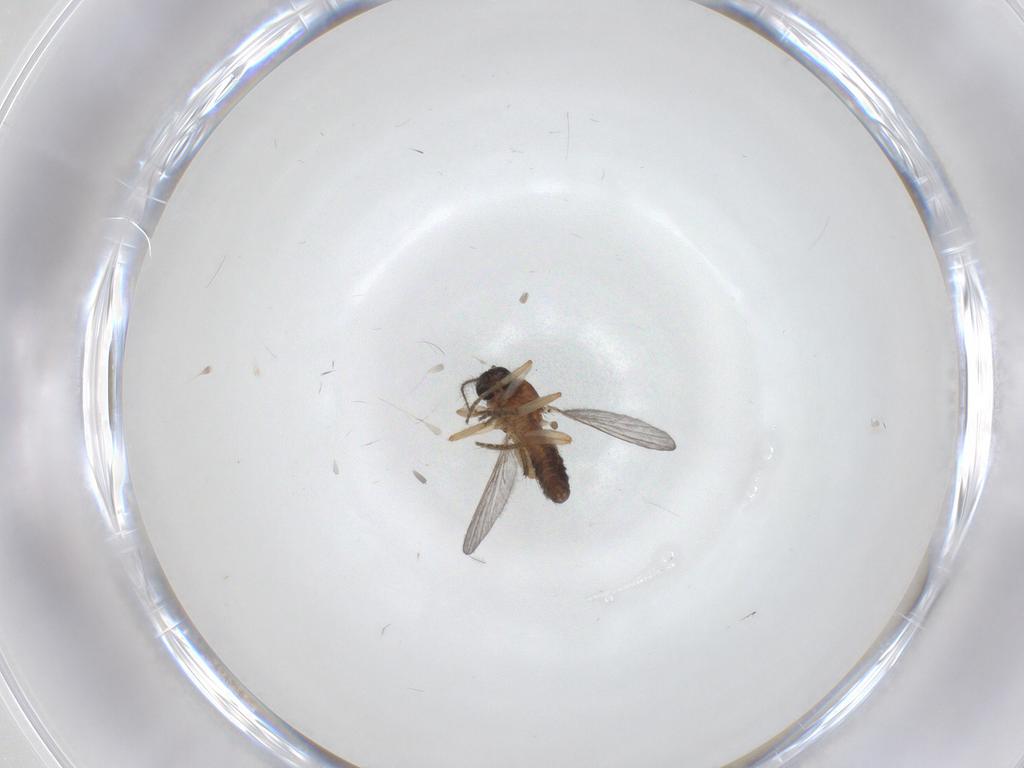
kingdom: Animalia
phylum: Arthropoda
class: Insecta
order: Diptera
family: Ceratopogonidae
